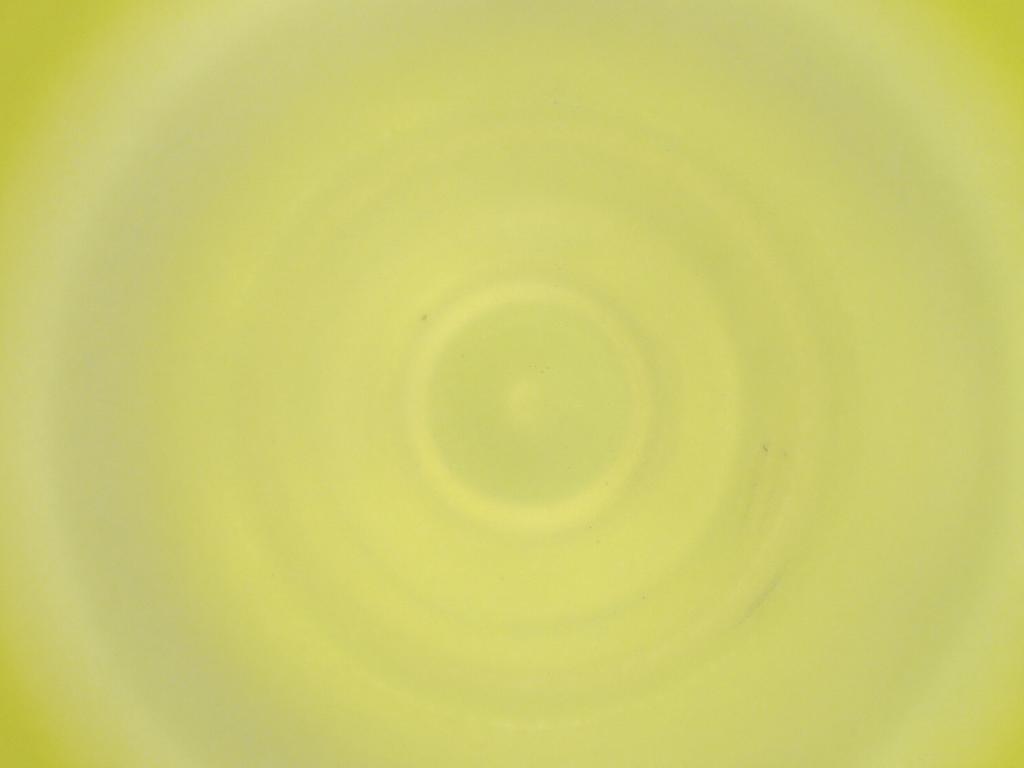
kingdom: Animalia
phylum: Arthropoda
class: Insecta
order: Diptera
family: Cecidomyiidae
